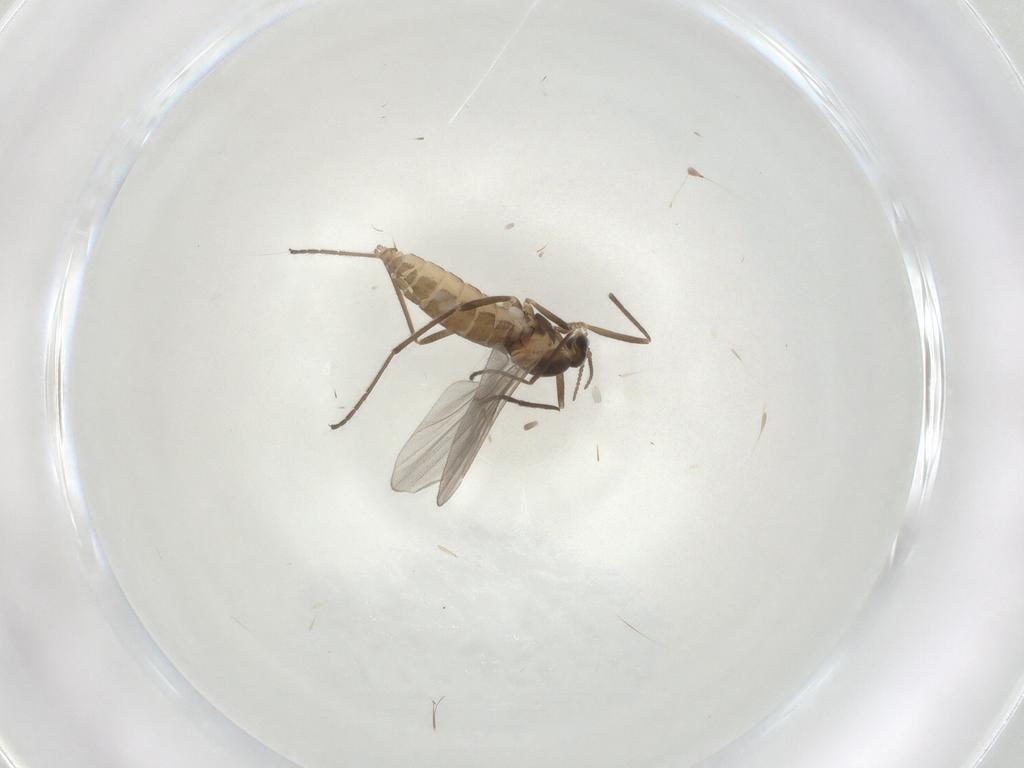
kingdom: Animalia
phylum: Arthropoda
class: Insecta
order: Diptera
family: Cecidomyiidae
